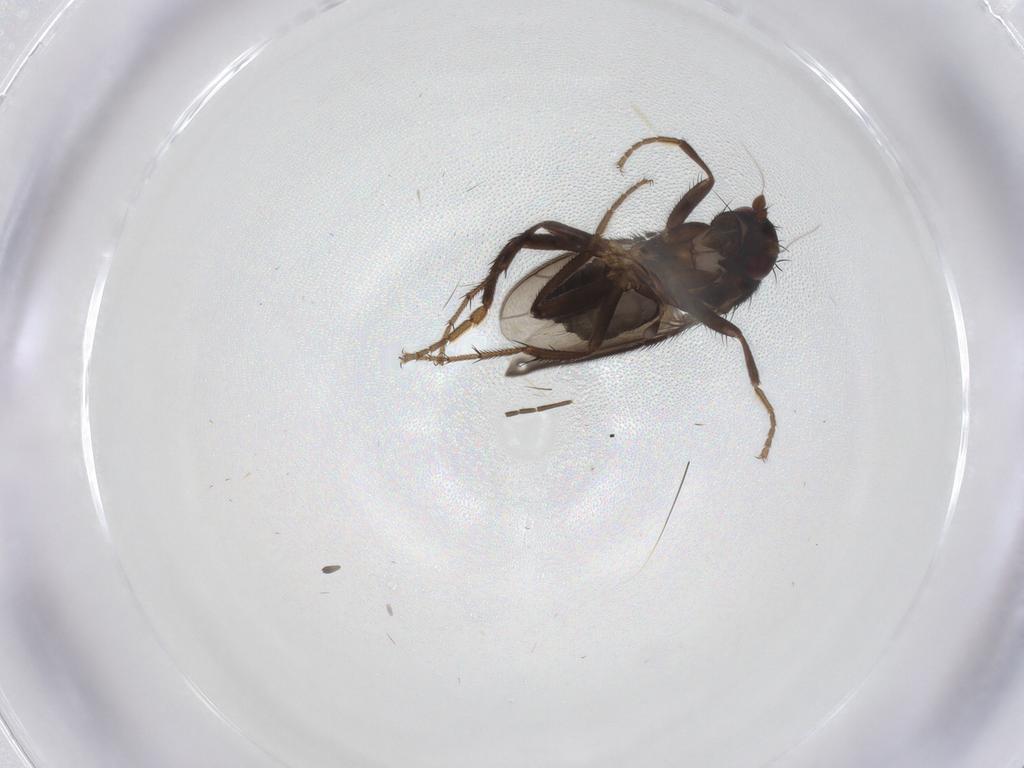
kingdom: Animalia
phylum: Arthropoda
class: Insecta
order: Diptera
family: Sphaeroceridae
